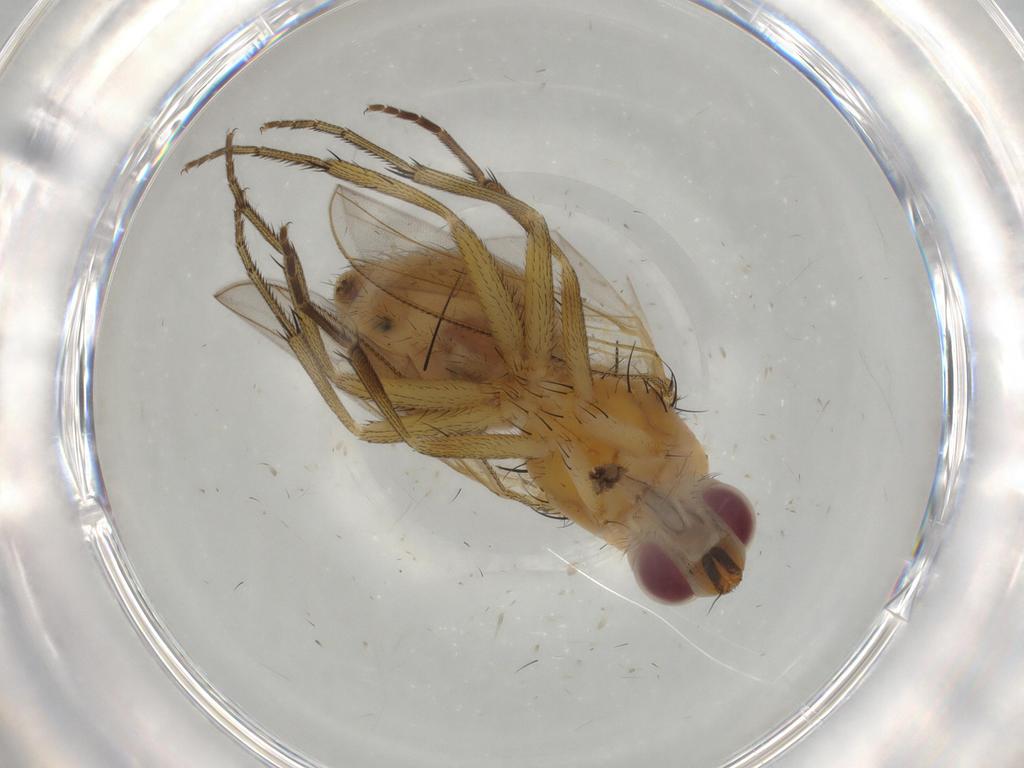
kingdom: Animalia
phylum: Arthropoda
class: Insecta
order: Diptera
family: Muscidae
